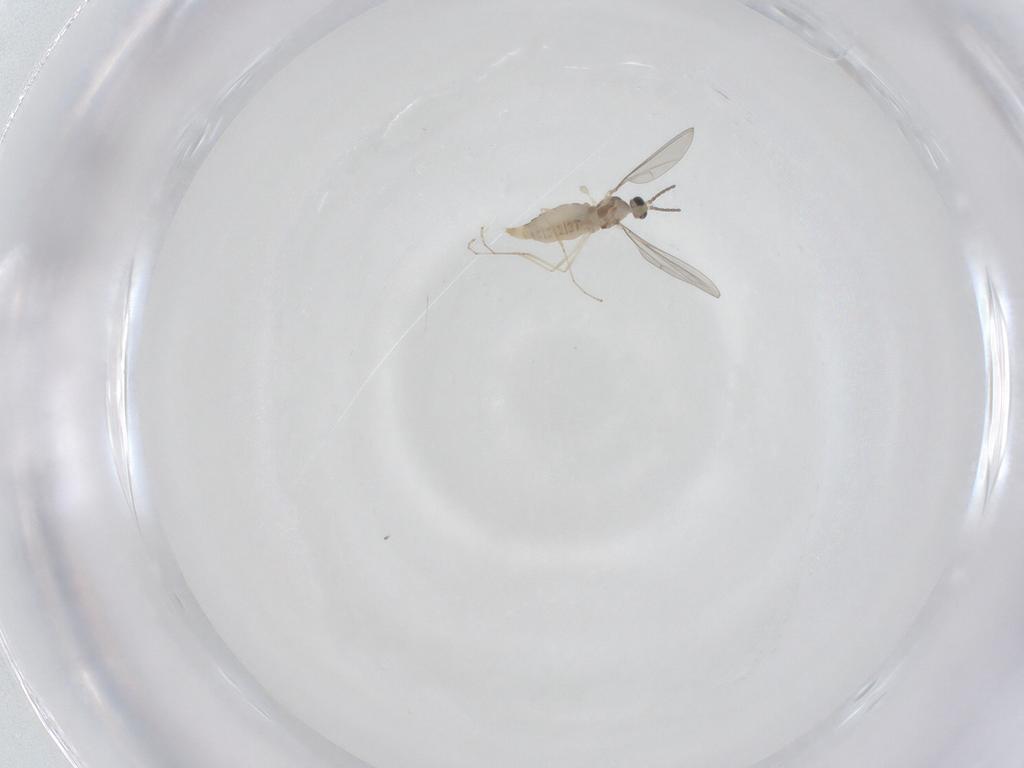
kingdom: Animalia
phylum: Arthropoda
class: Insecta
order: Diptera
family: Cecidomyiidae
